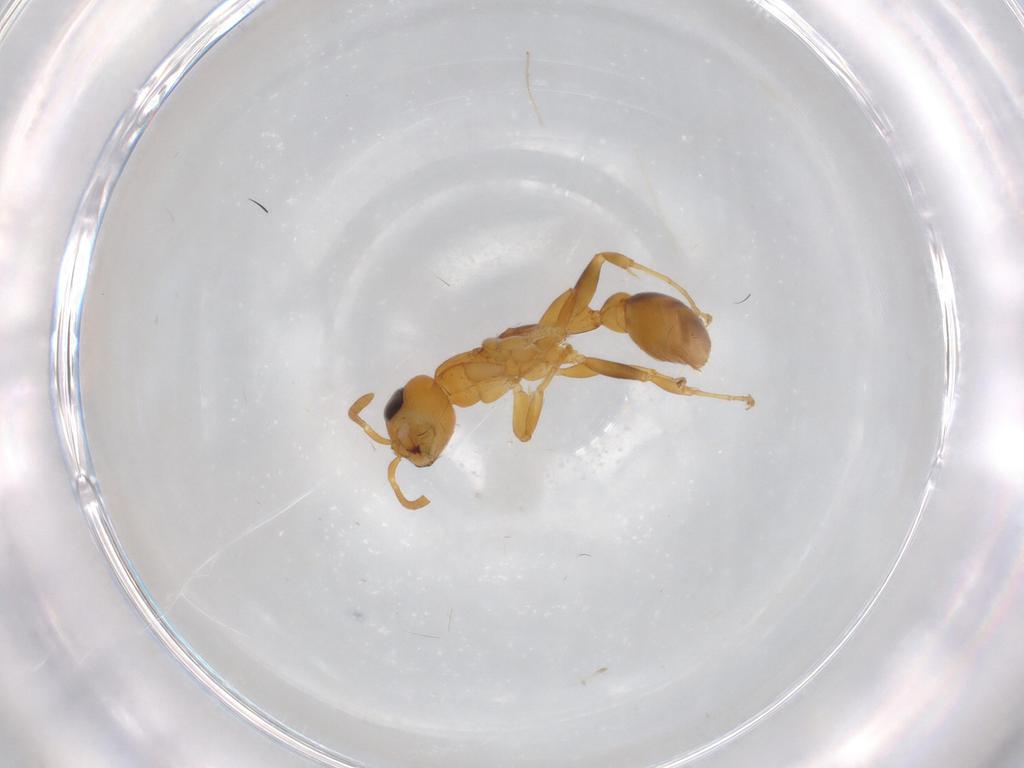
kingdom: Animalia
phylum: Arthropoda
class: Insecta
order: Hymenoptera
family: Formicidae
